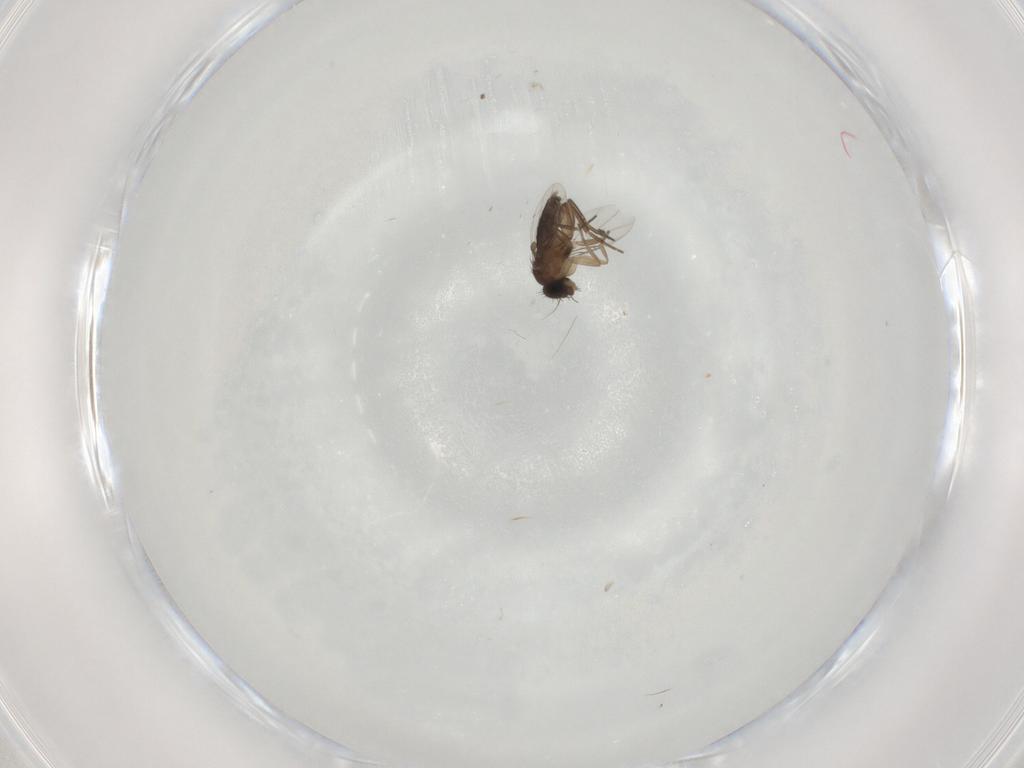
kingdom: Animalia
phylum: Arthropoda
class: Insecta
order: Diptera
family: Phoridae
